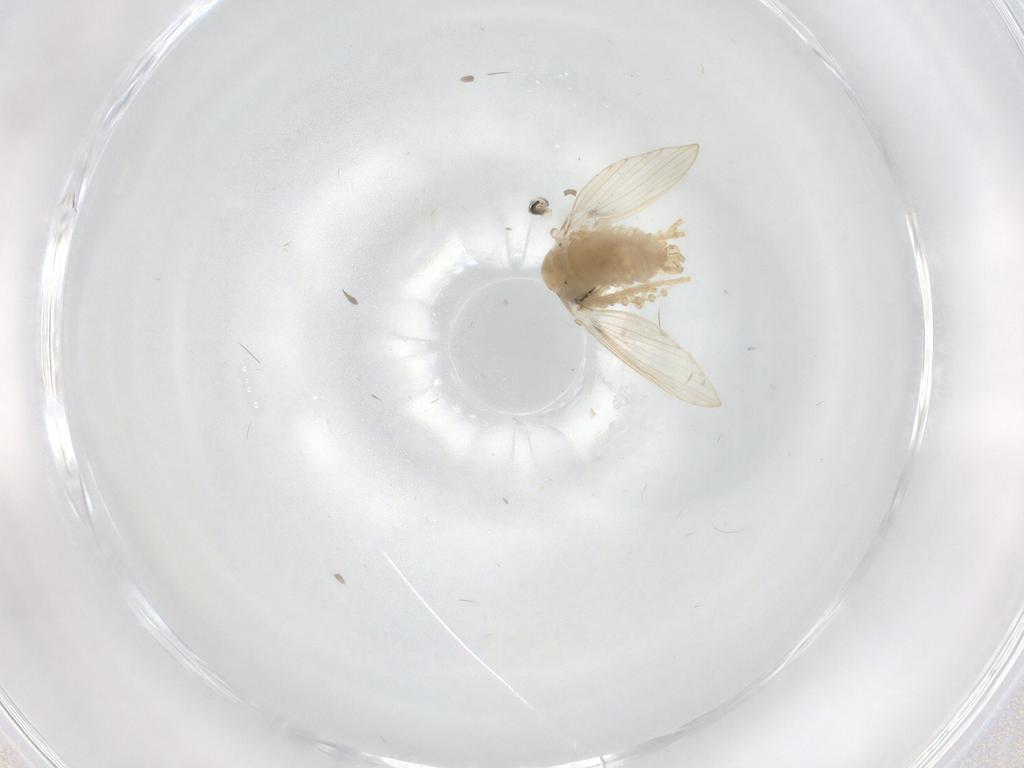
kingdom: Animalia
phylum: Arthropoda
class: Insecta
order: Diptera
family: Psychodidae
